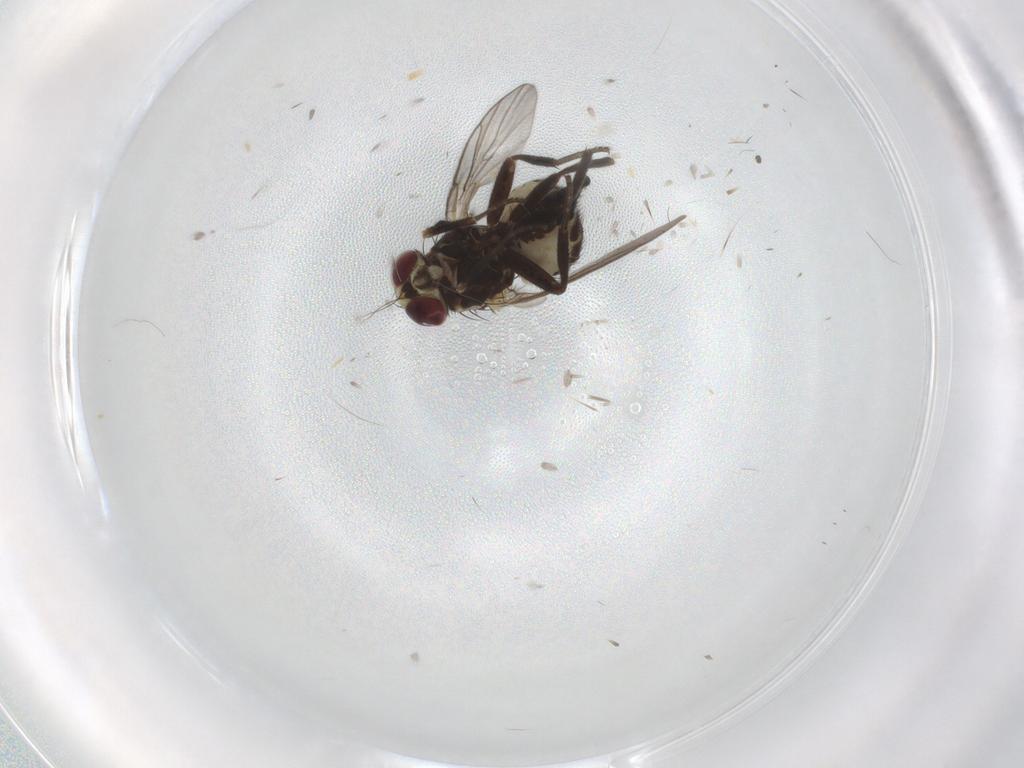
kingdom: Animalia
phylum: Arthropoda
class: Insecta
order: Diptera
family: Agromyzidae
